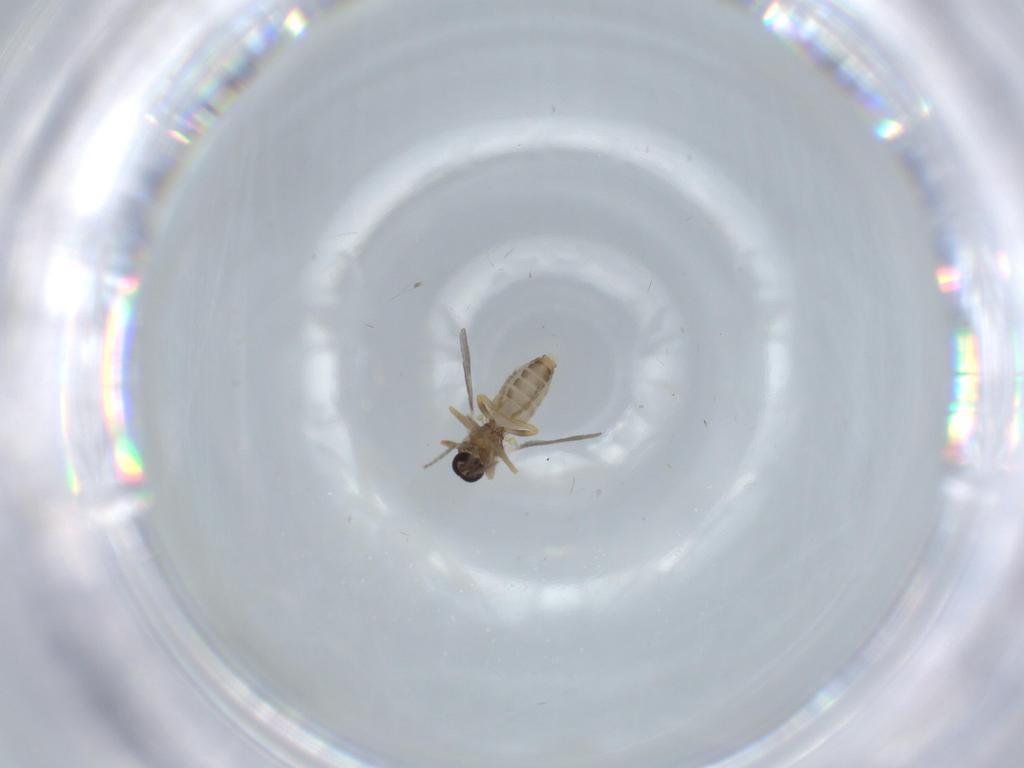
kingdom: Animalia
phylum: Arthropoda
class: Insecta
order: Diptera
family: Ceratopogonidae
